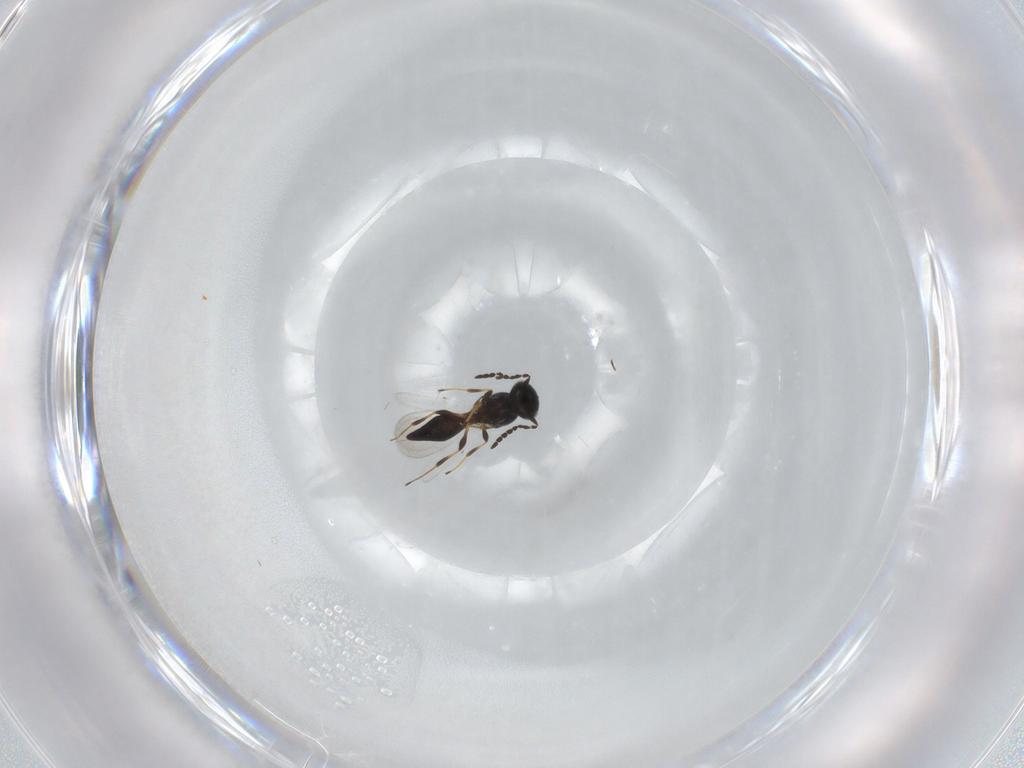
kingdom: Animalia
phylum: Arthropoda
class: Insecta
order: Hymenoptera
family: Platygastridae
